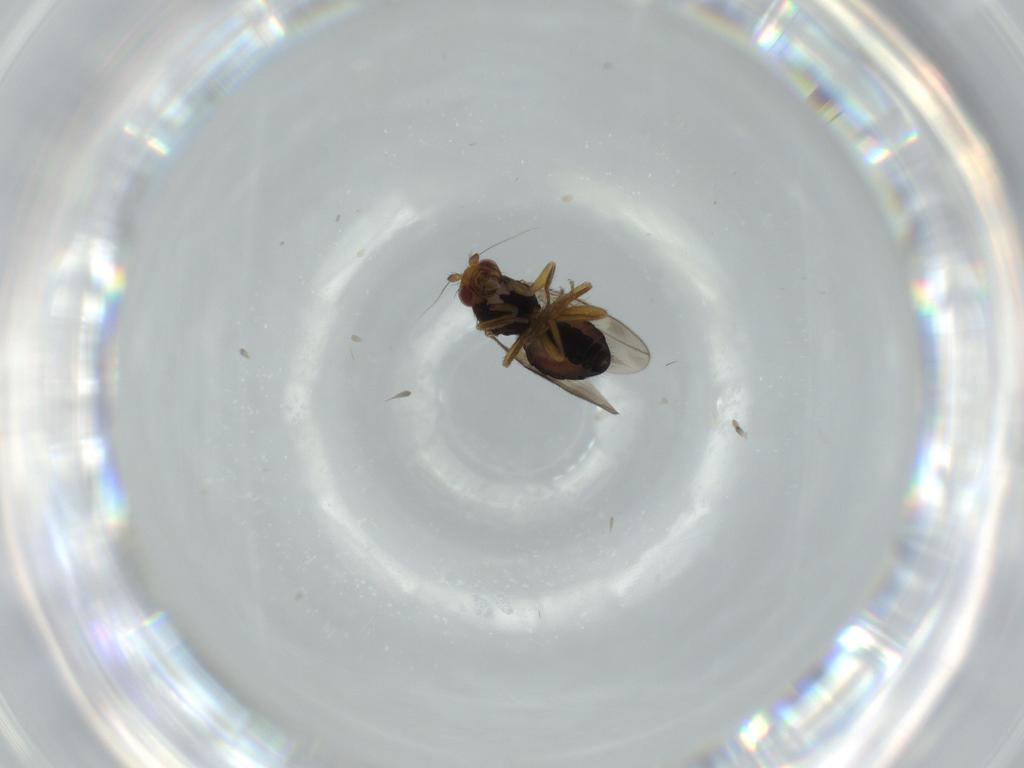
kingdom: Animalia
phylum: Arthropoda
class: Insecta
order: Diptera
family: Sphaeroceridae
